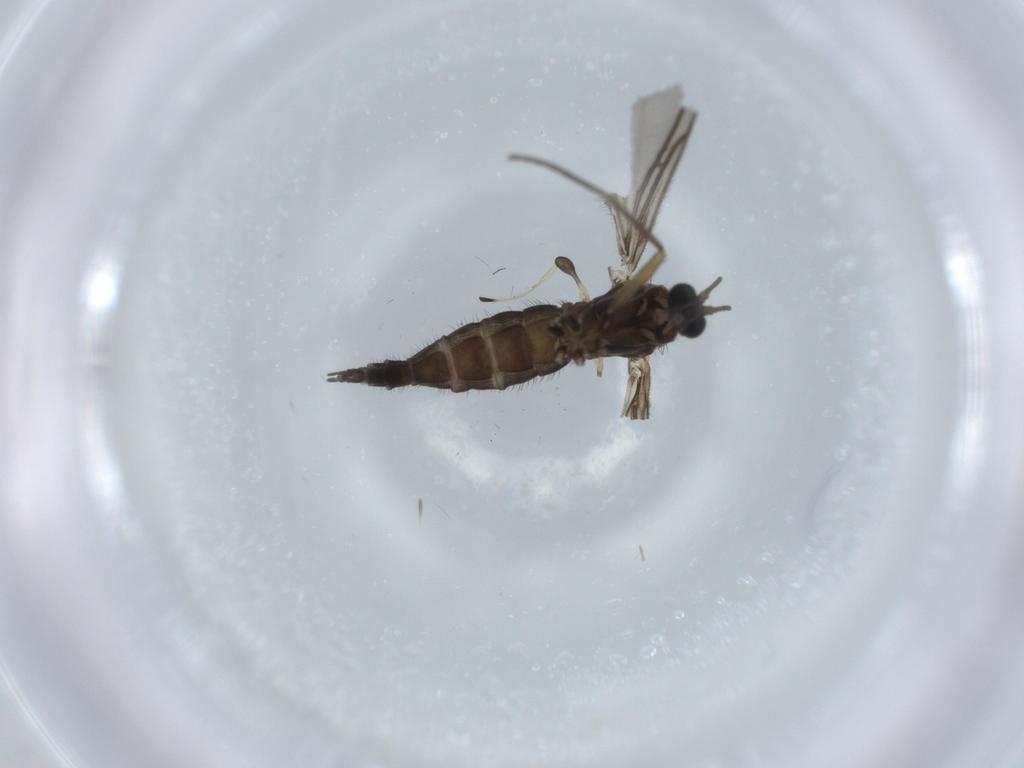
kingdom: Animalia
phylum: Arthropoda
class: Insecta
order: Diptera
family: Sciaridae
